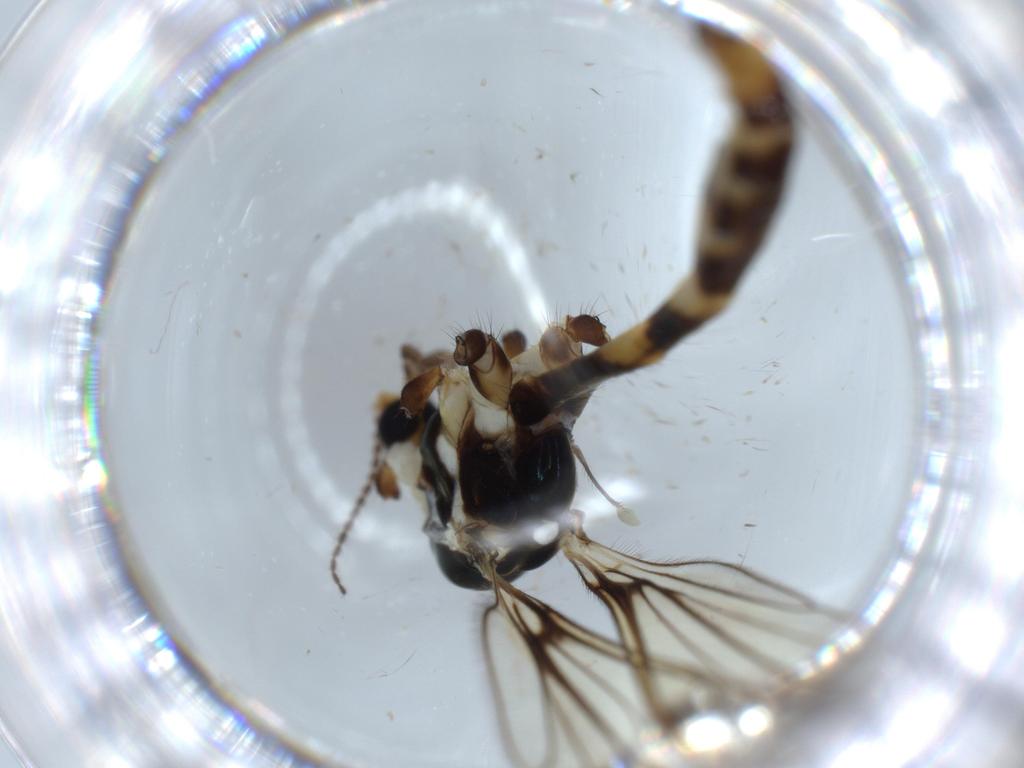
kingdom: Animalia
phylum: Arthropoda
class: Insecta
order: Diptera
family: Limoniidae
